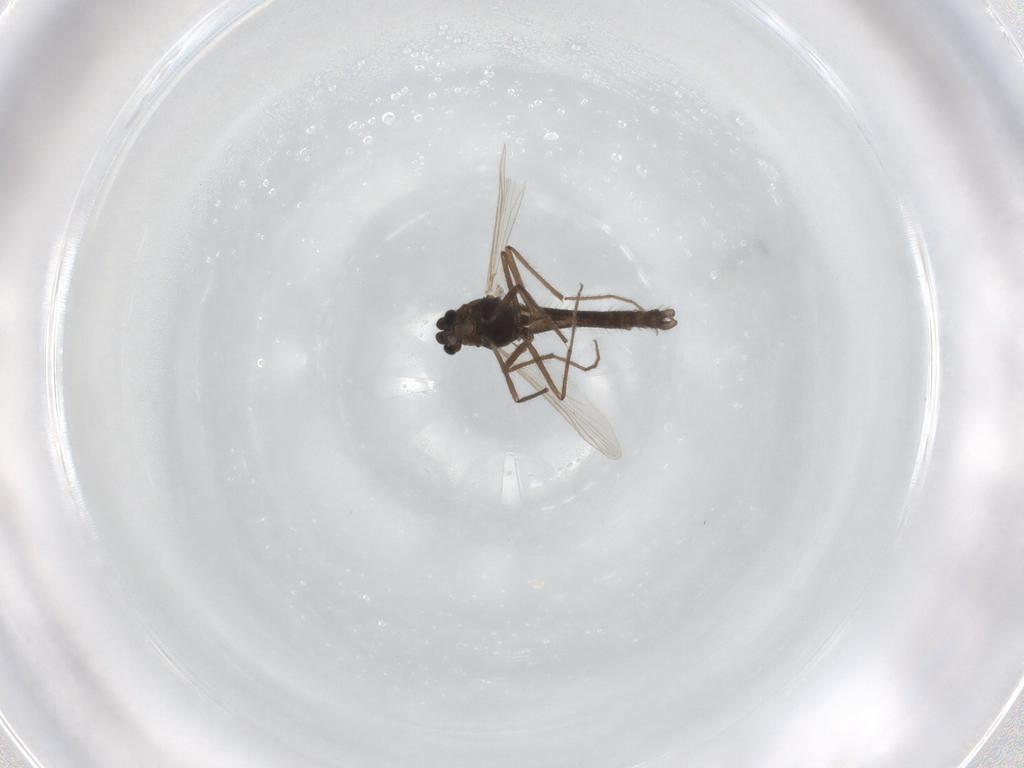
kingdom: Animalia
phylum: Arthropoda
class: Insecta
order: Diptera
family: Chironomidae
